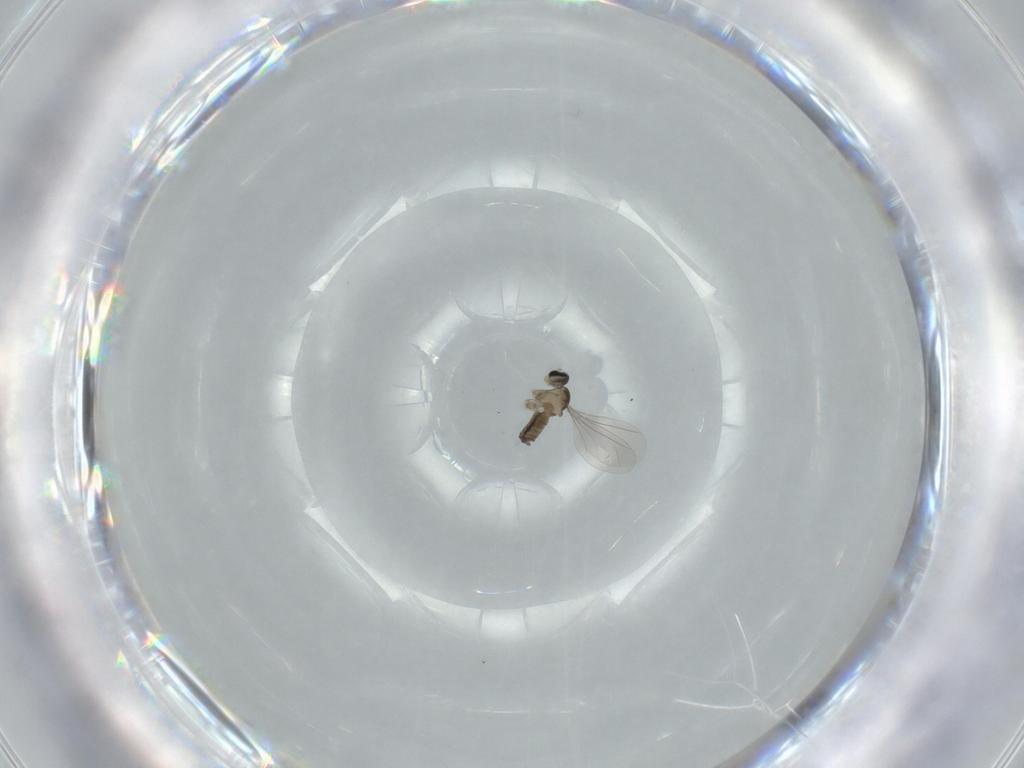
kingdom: Animalia
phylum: Arthropoda
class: Insecta
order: Diptera
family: Cecidomyiidae
